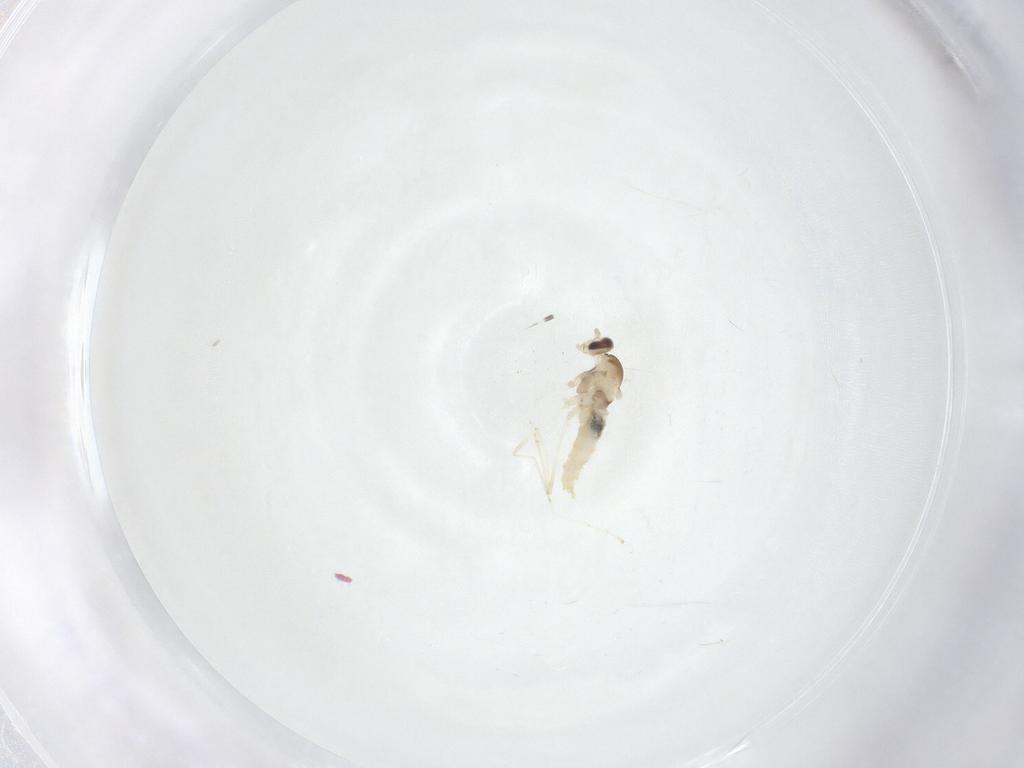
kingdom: Animalia
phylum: Arthropoda
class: Insecta
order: Diptera
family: Cecidomyiidae
